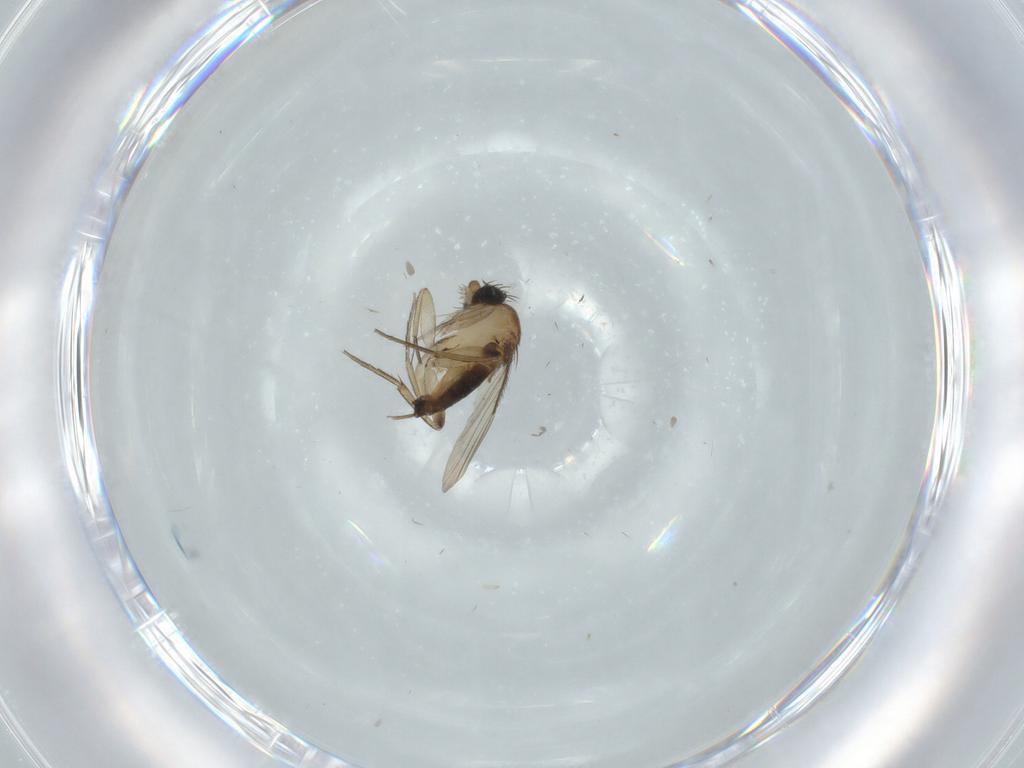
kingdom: Animalia
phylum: Arthropoda
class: Insecta
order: Diptera
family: Phoridae
